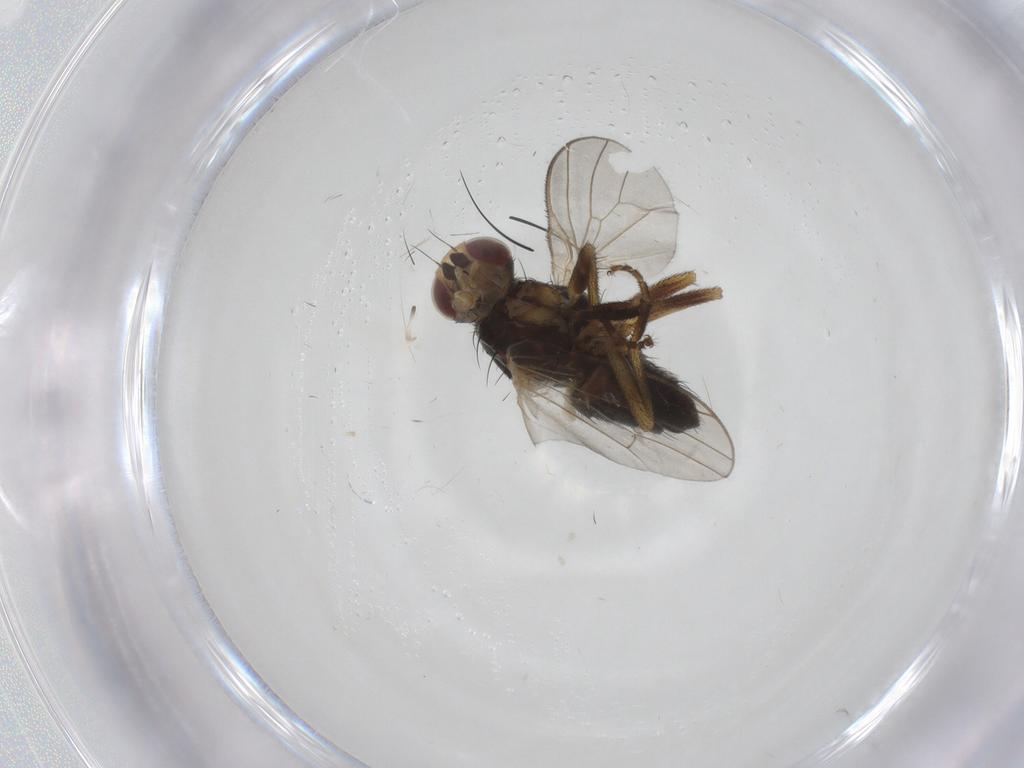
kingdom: Animalia
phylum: Arthropoda
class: Insecta
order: Diptera
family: Heleomyzidae
